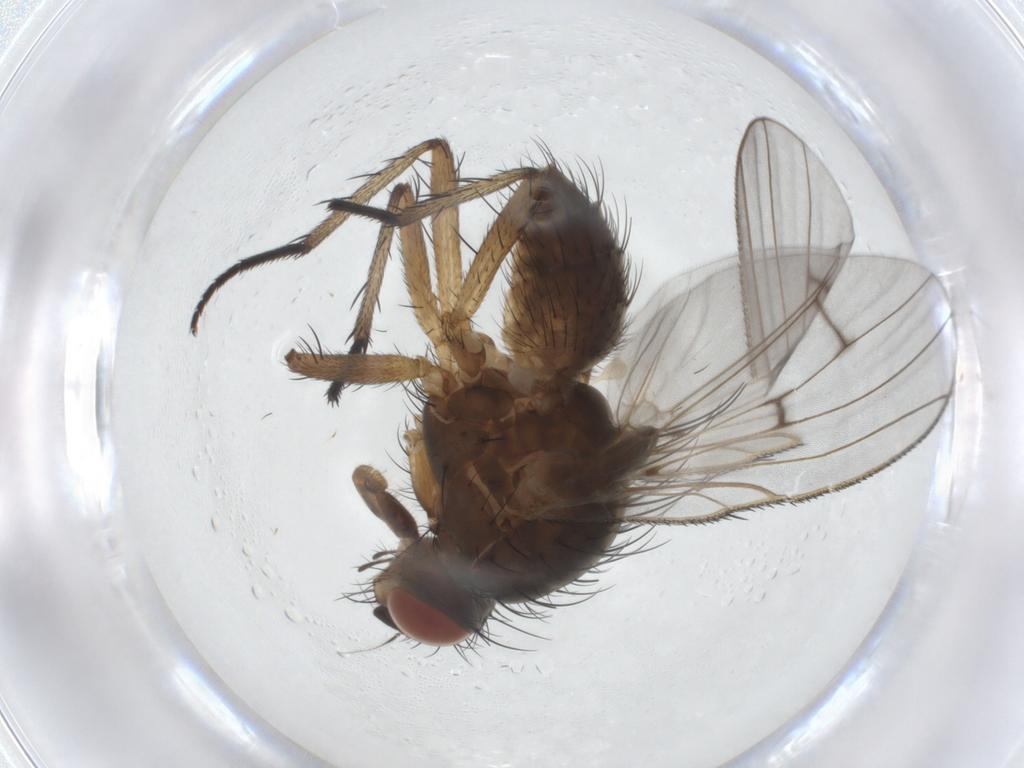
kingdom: Animalia
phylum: Arthropoda
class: Insecta
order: Diptera
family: Anthomyiidae
